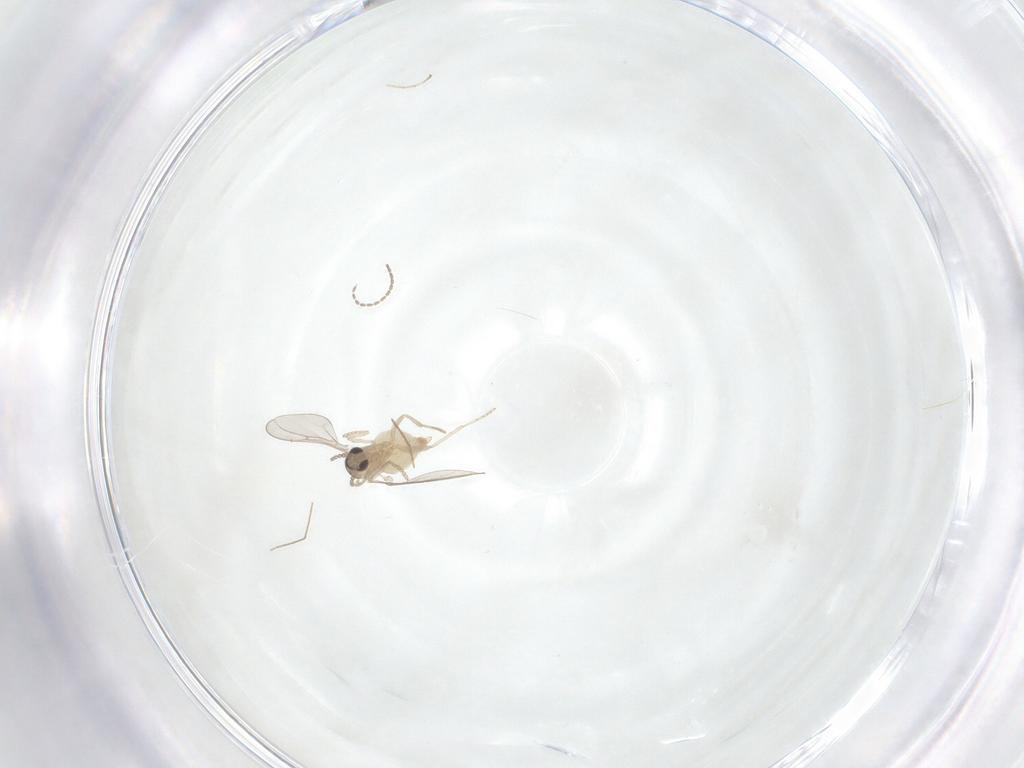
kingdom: Animalia
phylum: Arthropoda
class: Insecta
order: Diptera
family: Cecidomyiidae
